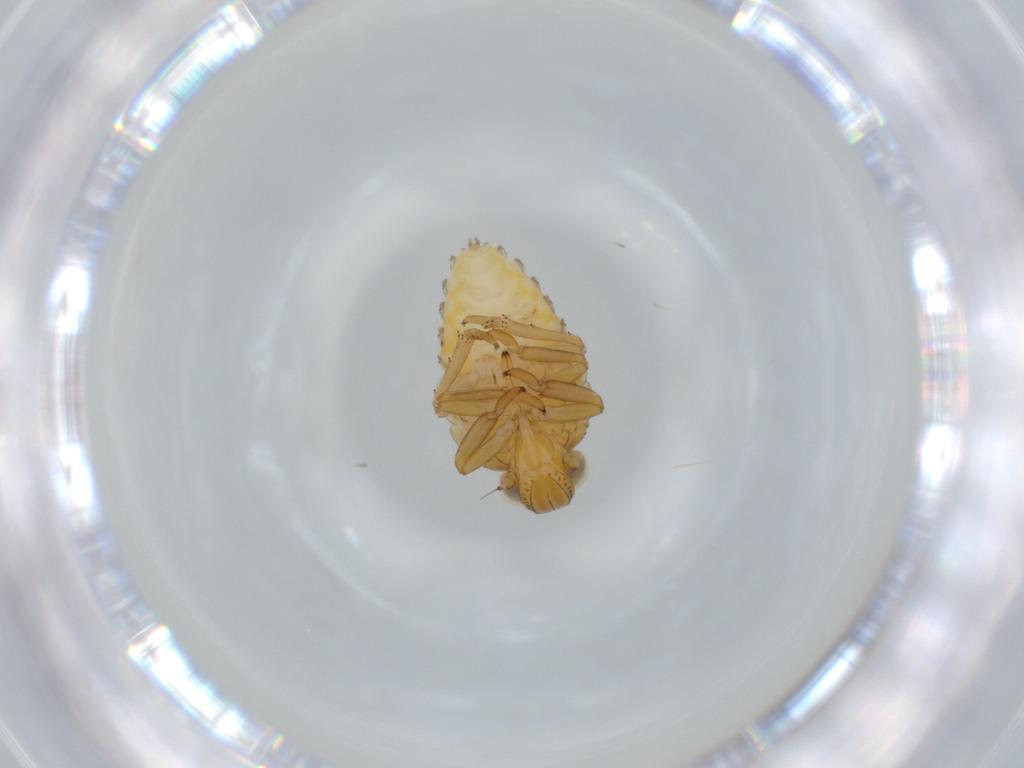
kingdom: Animalia
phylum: Arthropoda
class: Insecta
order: Hemiptera
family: Issidae
